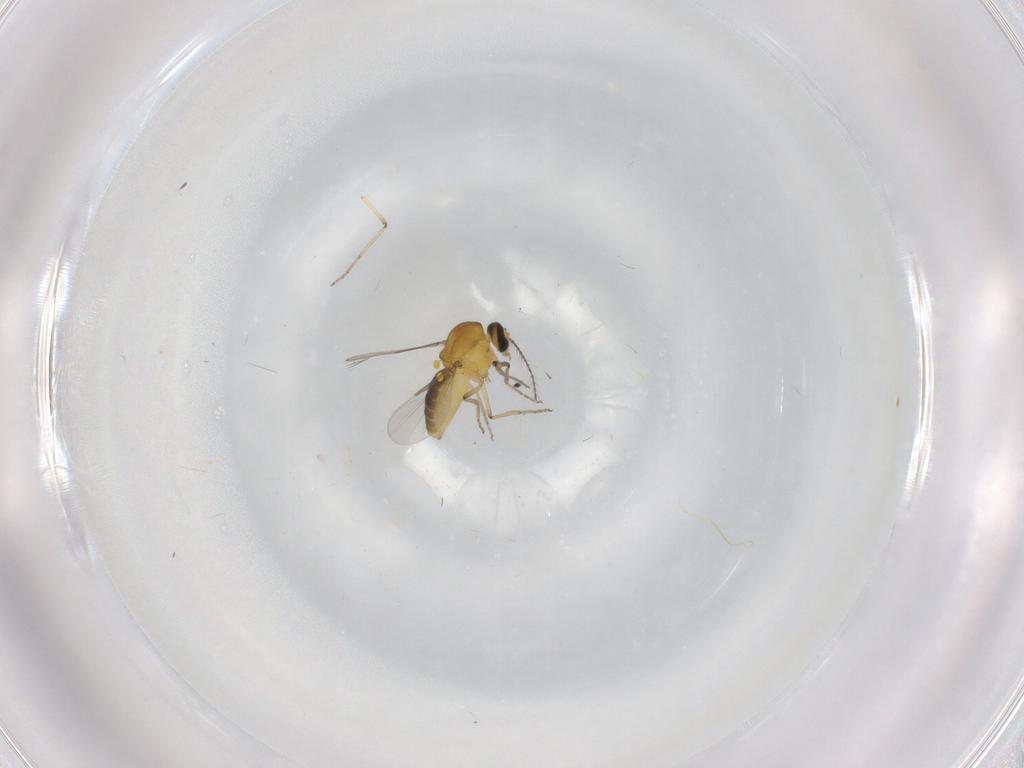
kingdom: Animalia
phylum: Arthropoda
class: Insecta
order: Diptera
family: Ceratopogonidae
